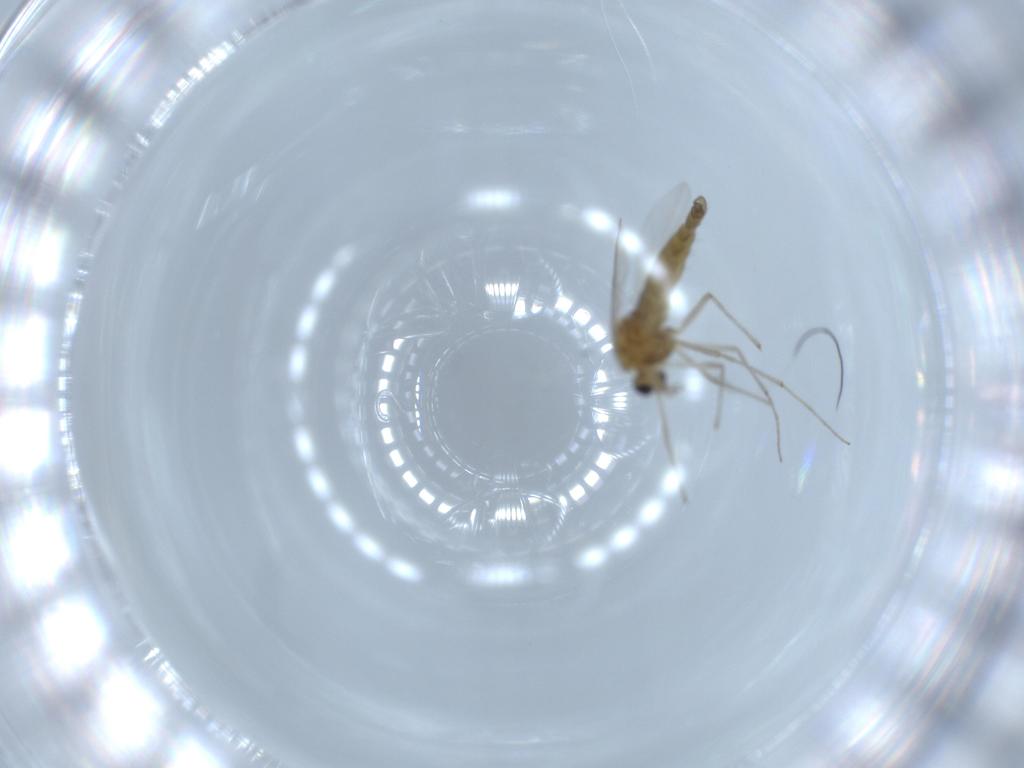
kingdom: Animalia
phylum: Arthropoda
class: Insecta
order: Diptera
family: Chironomidae
